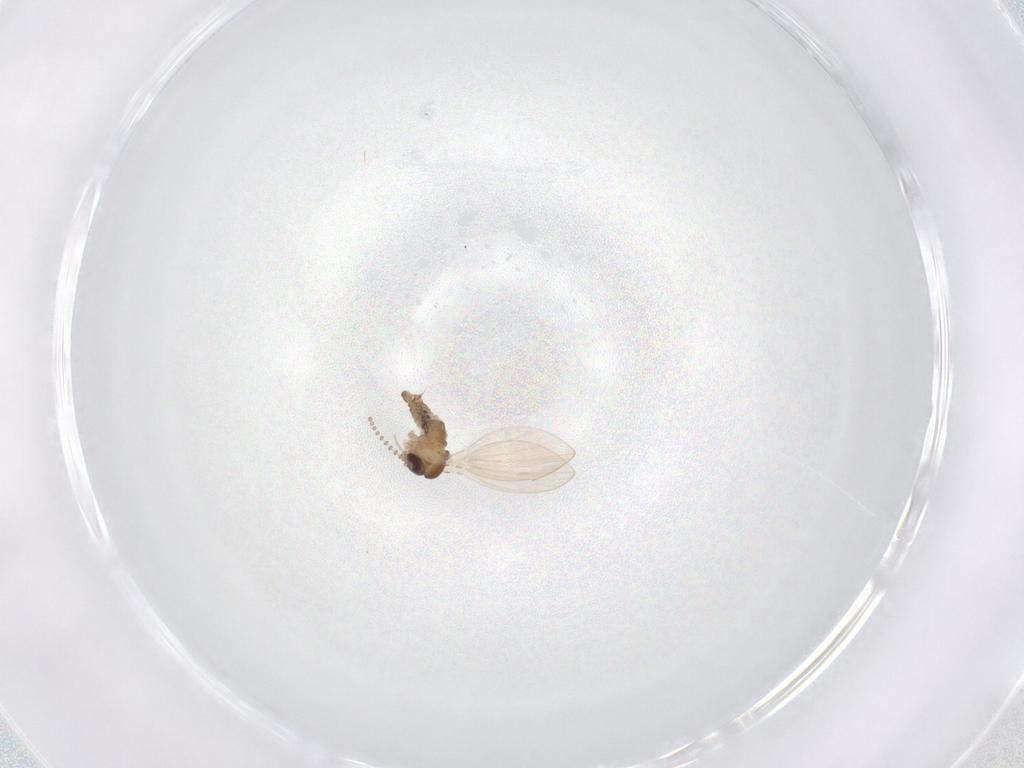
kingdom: Animalia
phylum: Arthropoda
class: Insecta
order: Diptera
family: Psychodidae
